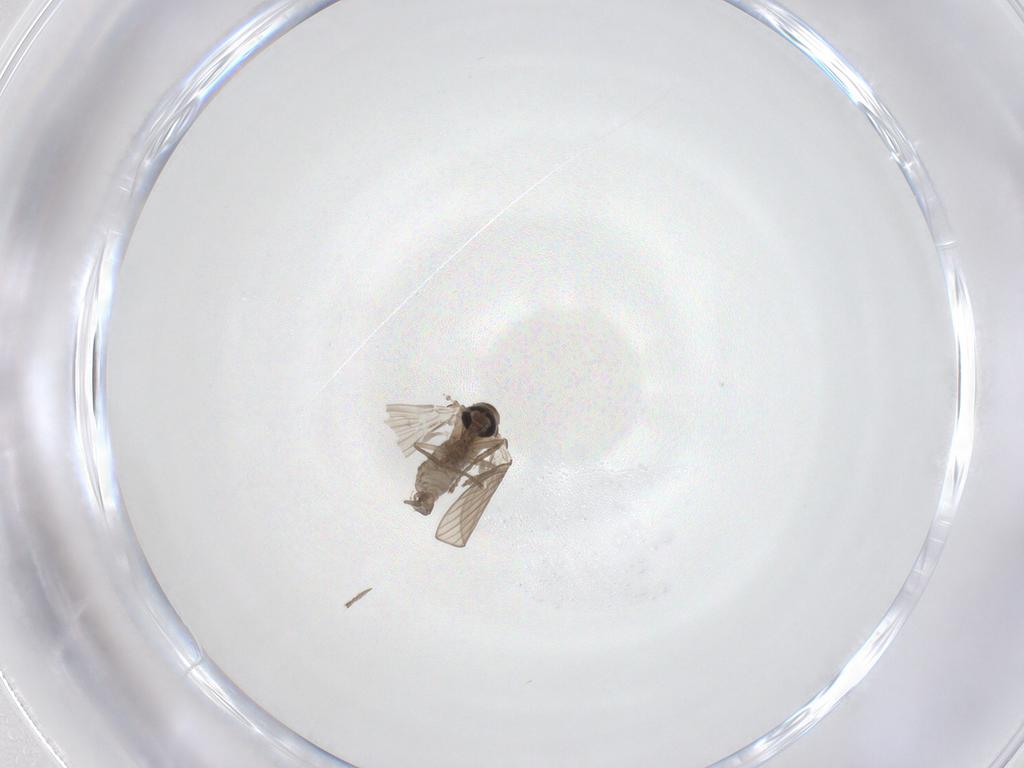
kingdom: Animalia
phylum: Arthropoda
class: Insecta
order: Diptera
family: Psychodidae
